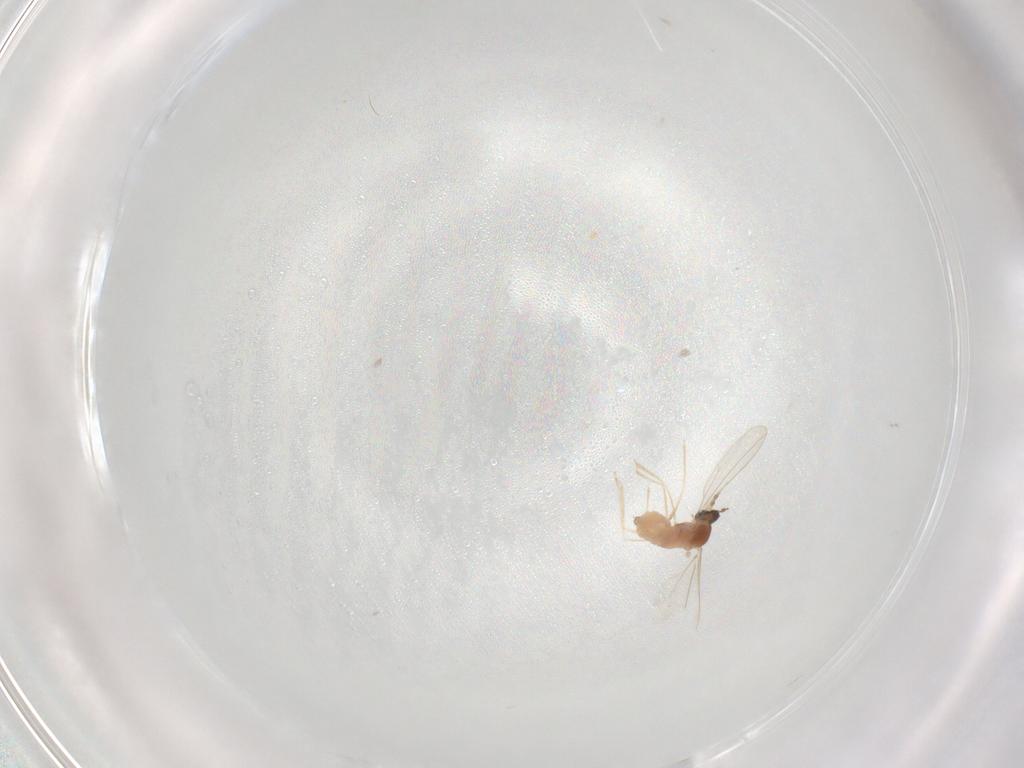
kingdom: Animalia
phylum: Arthropoda
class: Insecta
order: Diptera
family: Cecidomyiidae
